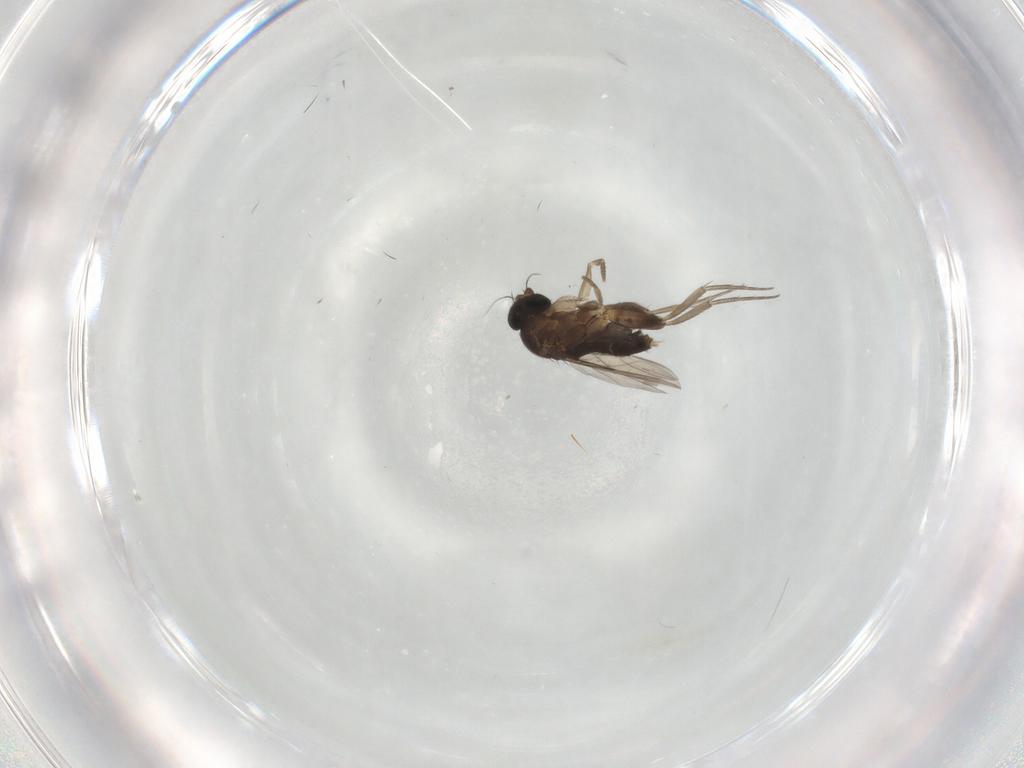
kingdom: Animalia
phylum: Arthropoda
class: Insecta
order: Diptera
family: Phoridae
